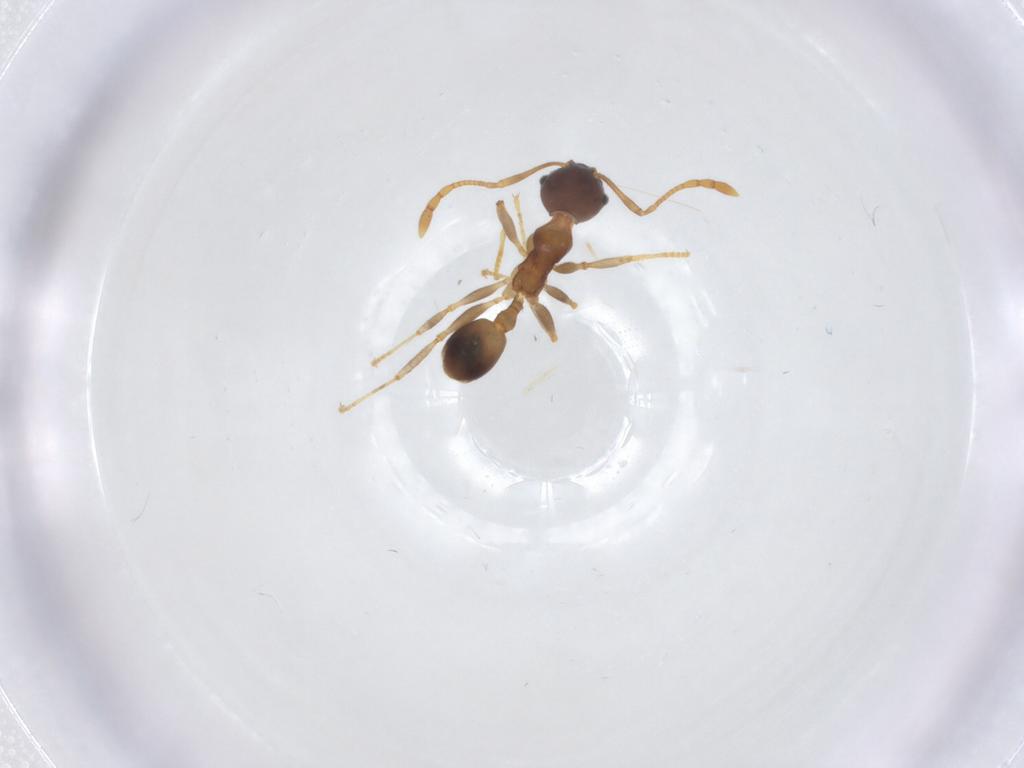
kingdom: Animalia
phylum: Arthropoda
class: Insecta
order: Hymenoptera
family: Formicidae
